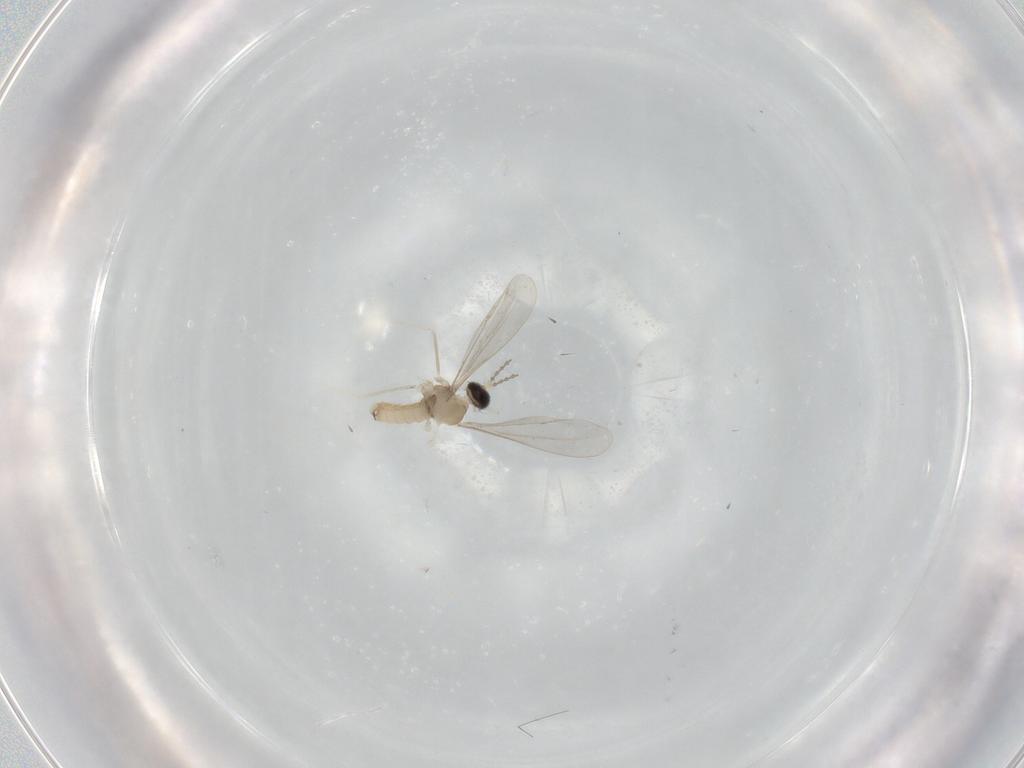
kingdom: Animalia
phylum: Arthropoda
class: Insecta
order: Diptera
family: Cecidomyiidae
